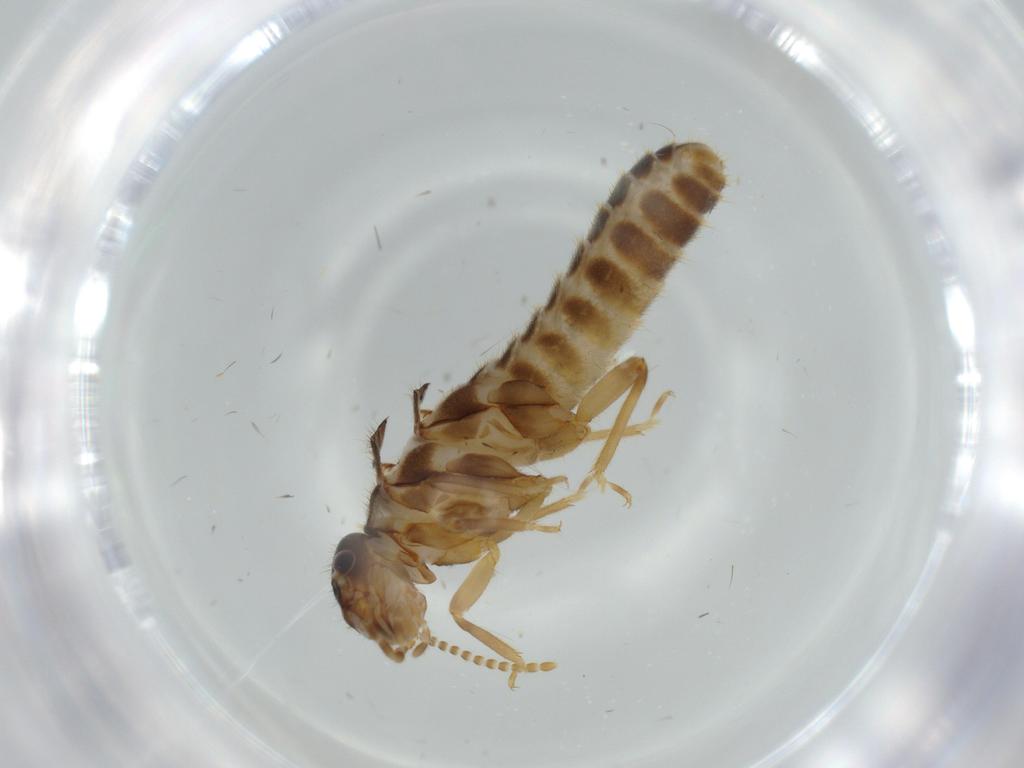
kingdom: Animalia
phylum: Arthropoda
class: Insecta
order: Blattodea
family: Termitidae
